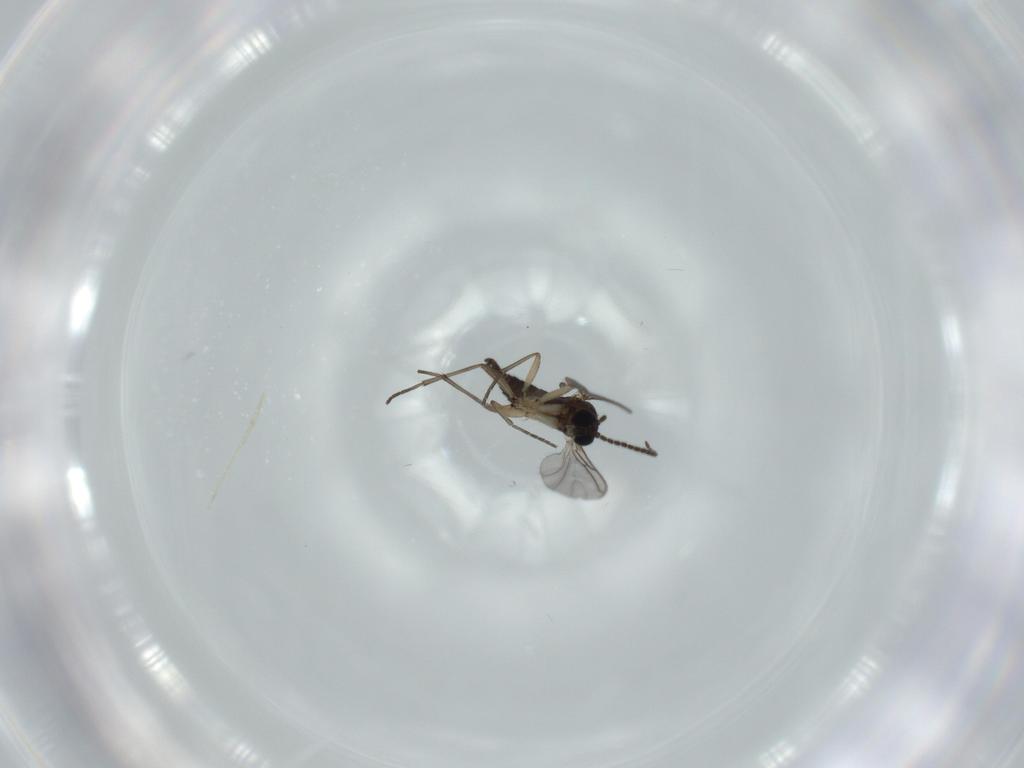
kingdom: Animalia
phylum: Arthropoda
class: Insecta
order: Diptera
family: Sciaridae
